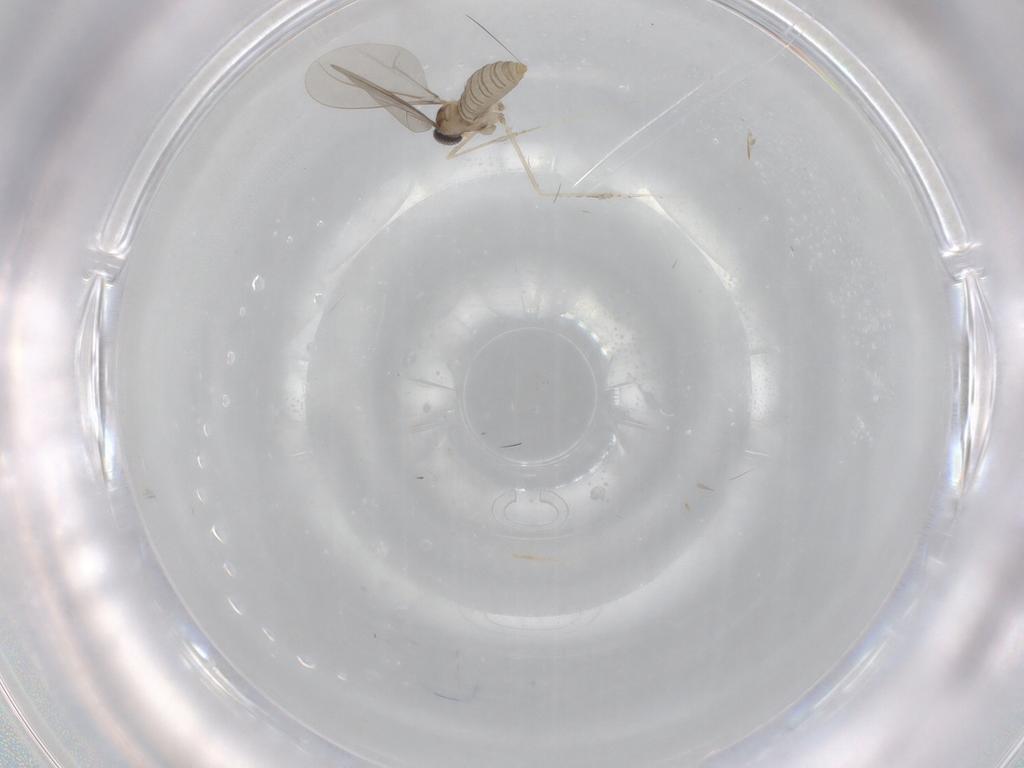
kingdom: Animalia
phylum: Arthropoda
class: Insecta
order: Diptera
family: Cecidomyiidae
